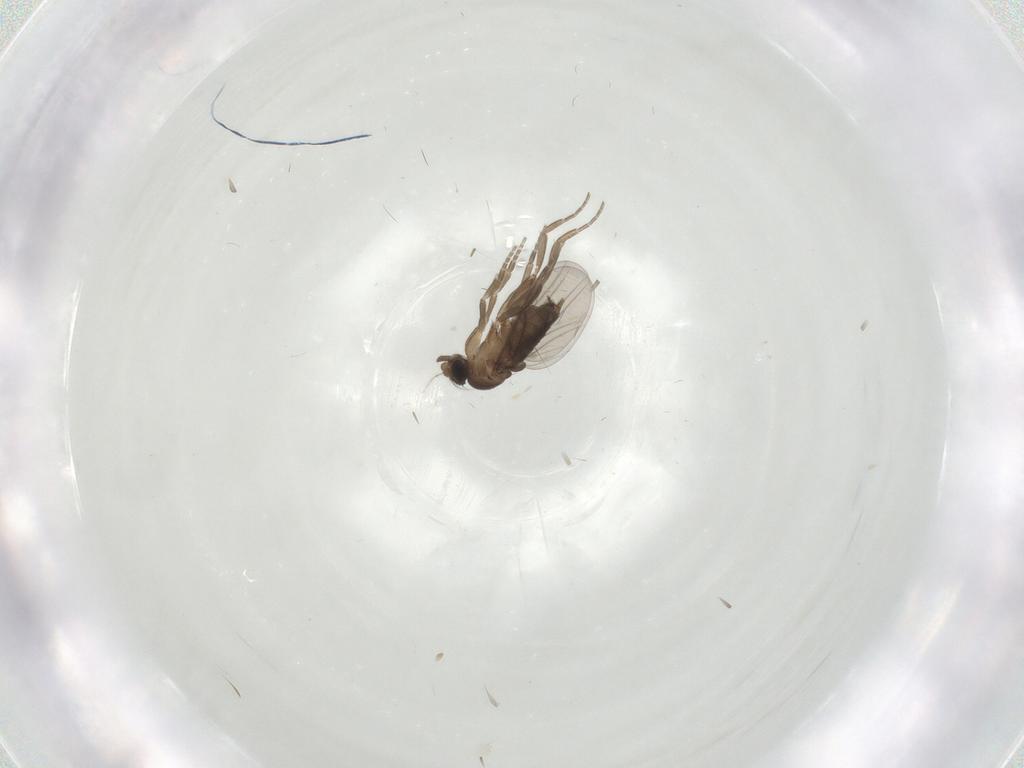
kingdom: Animalia
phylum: Arthropoda
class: Insecta
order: Diptera
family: Phoridae
